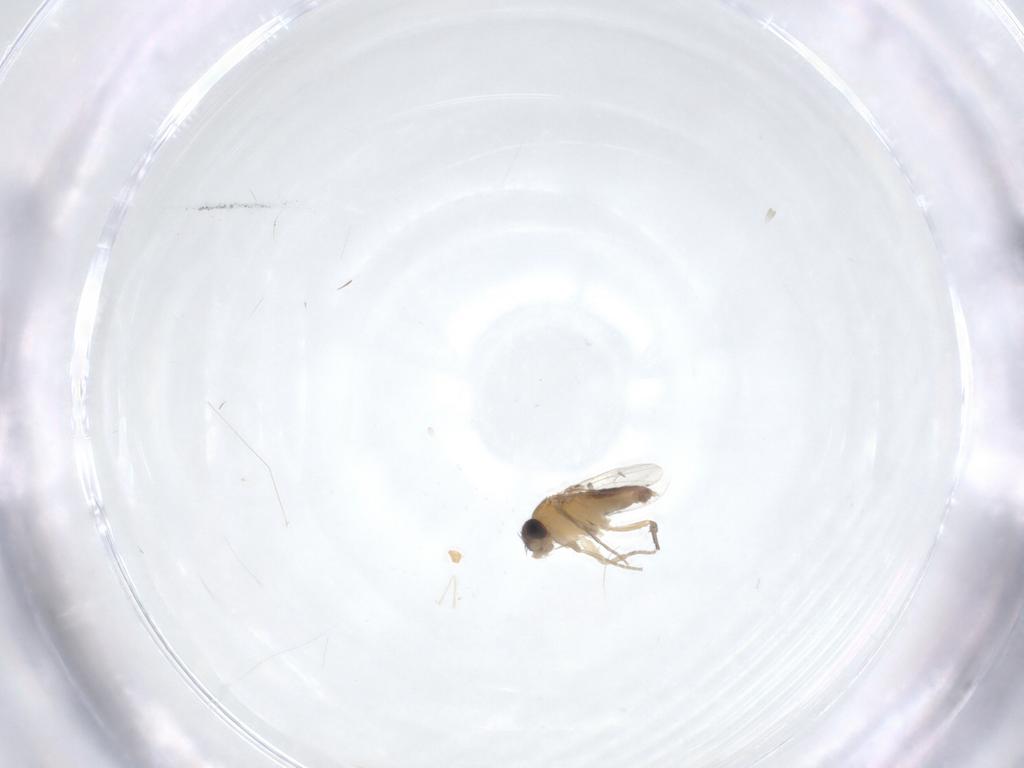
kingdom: Animalia
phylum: Arthropoda
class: Insecta
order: Diptera
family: Phoridae
